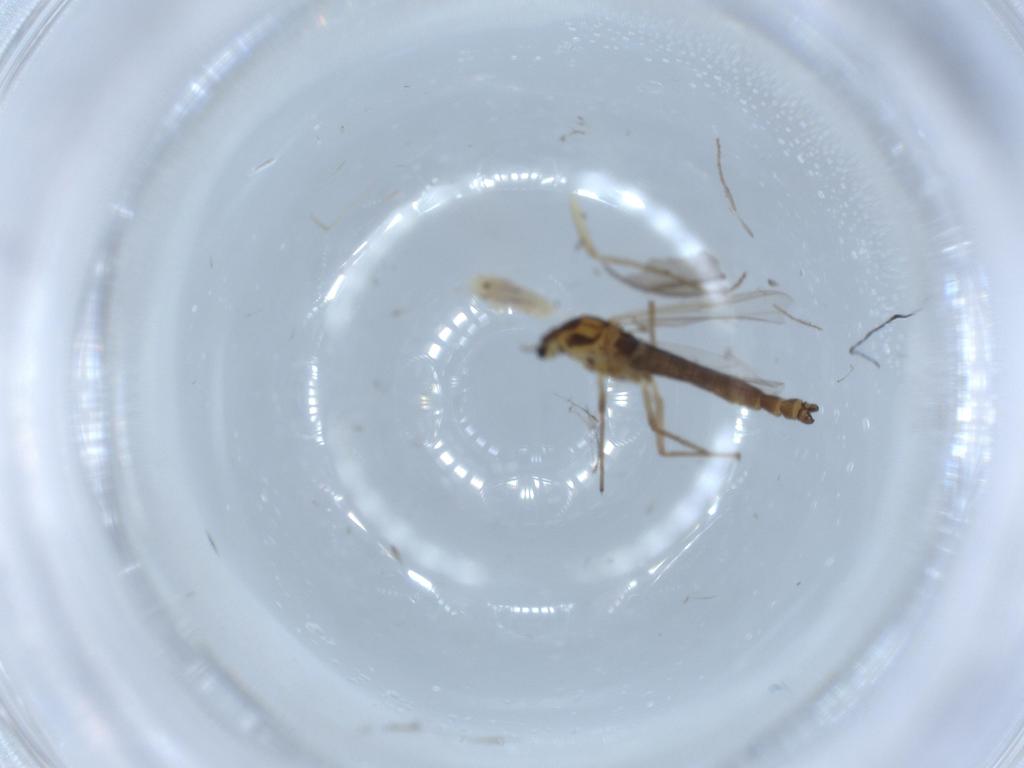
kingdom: Animalia
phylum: Arthropoda
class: Insecta
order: Diptera
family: Chironomidae
